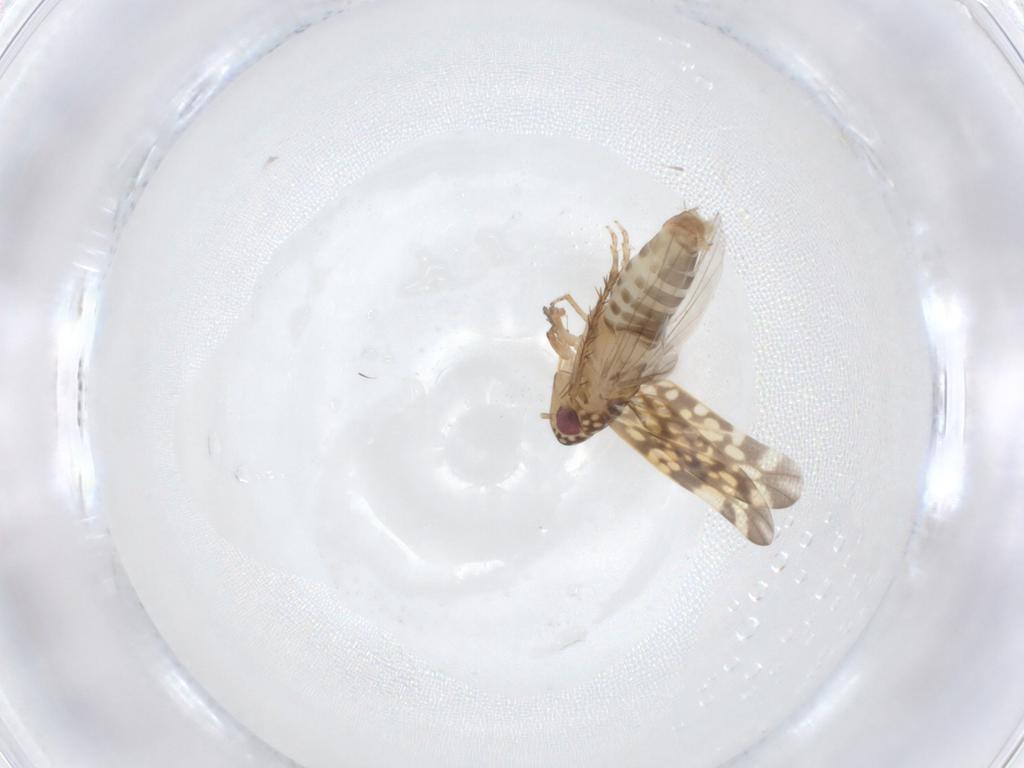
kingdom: Animalia
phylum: Arthropoda
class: Insecta
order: Hemiptera
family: Cicadellidae
